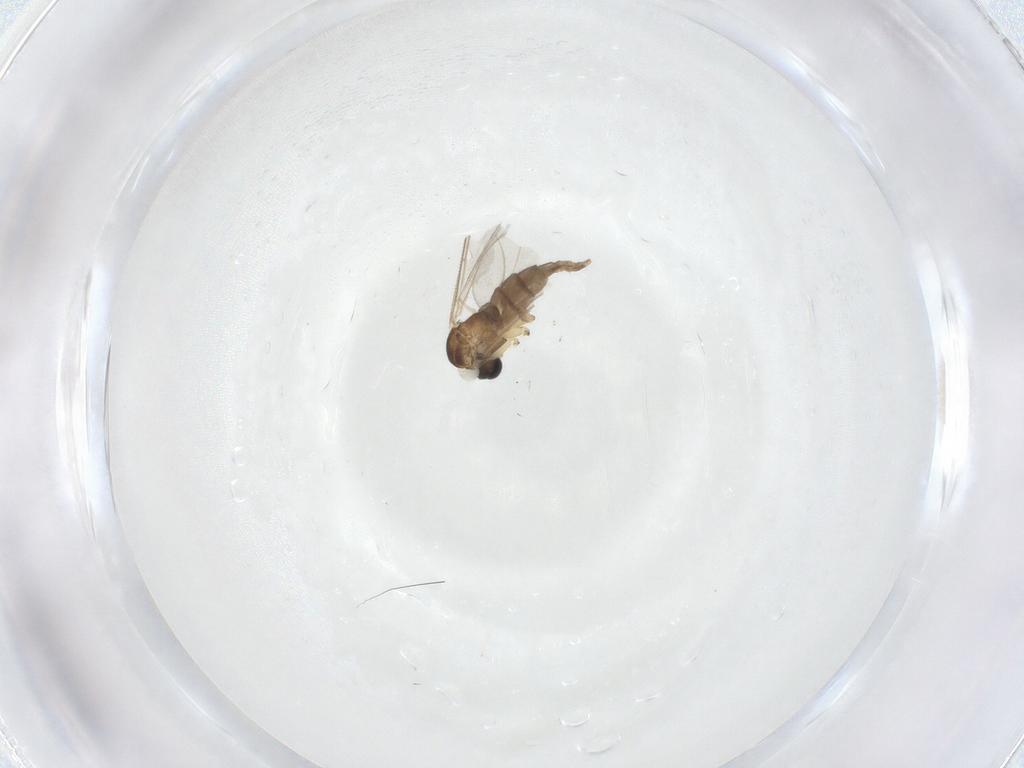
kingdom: Animalia
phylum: Arthropoda
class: Insecta
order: Diptera
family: Sciaridae
